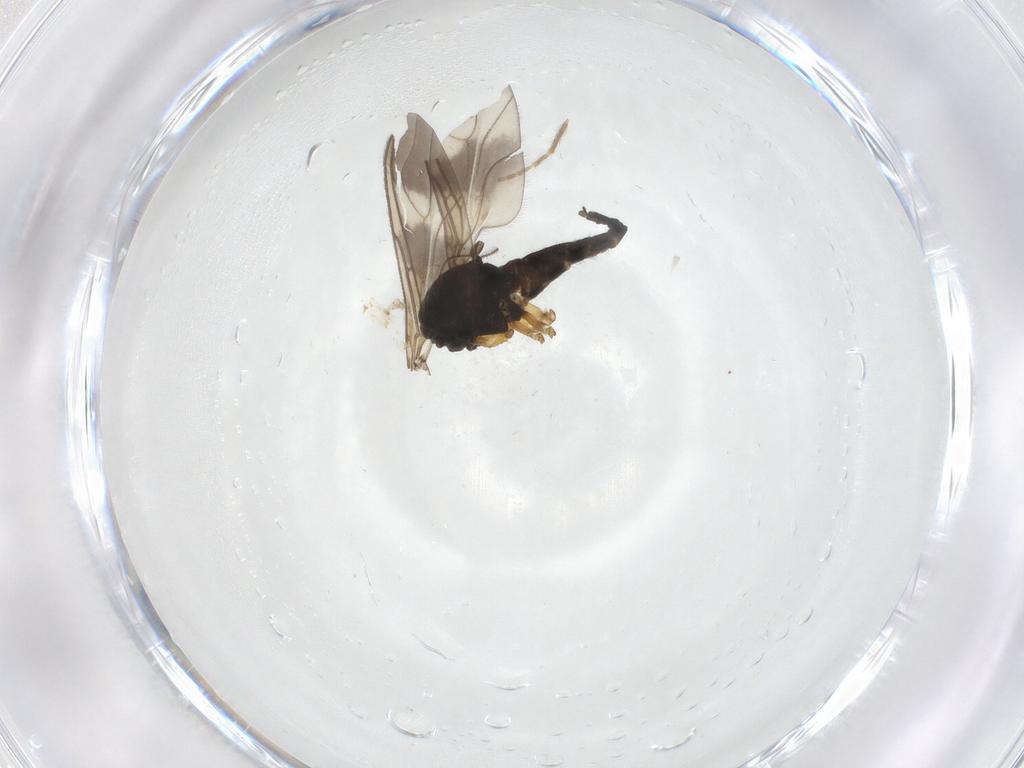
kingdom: Animalia
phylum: Arthropoda
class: Insecta
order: Diptera
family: Sciaridae
